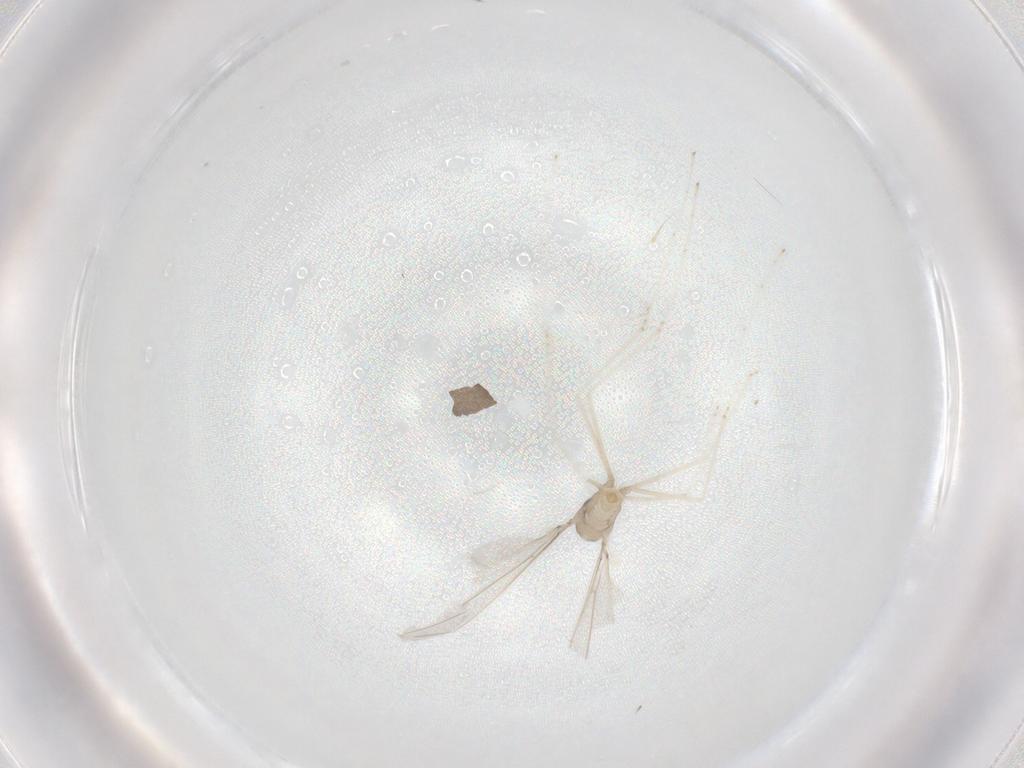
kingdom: Animalia
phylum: Arthropoda
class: Insecta
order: Diptera
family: Cecidomyiidae
